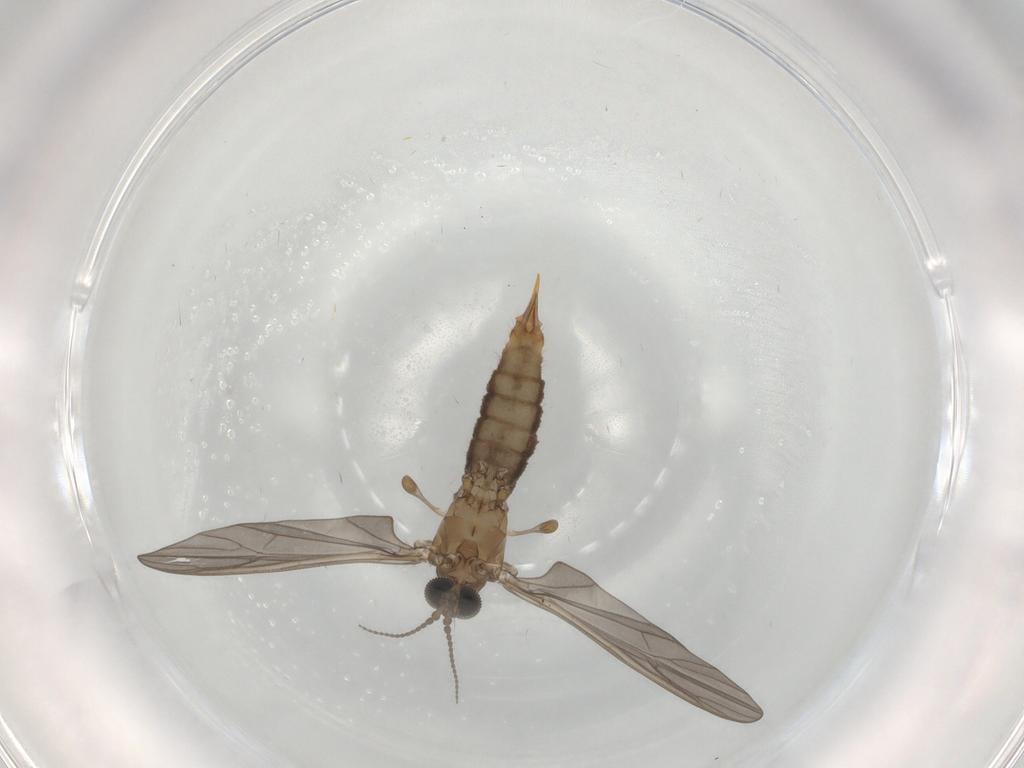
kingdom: Animalia
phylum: Arthropoda
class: Insecta
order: Diptera
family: Limoniidae
